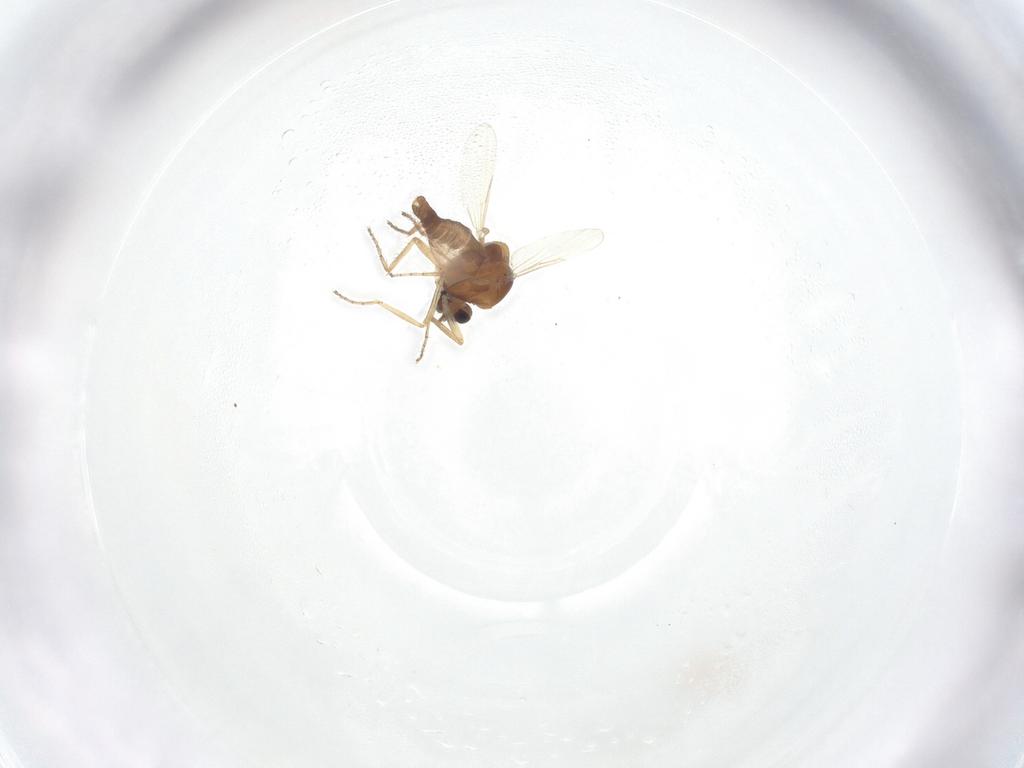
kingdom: Animalia
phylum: Arthropoda
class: Insecta
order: Diptera
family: Ceratopogonidae
